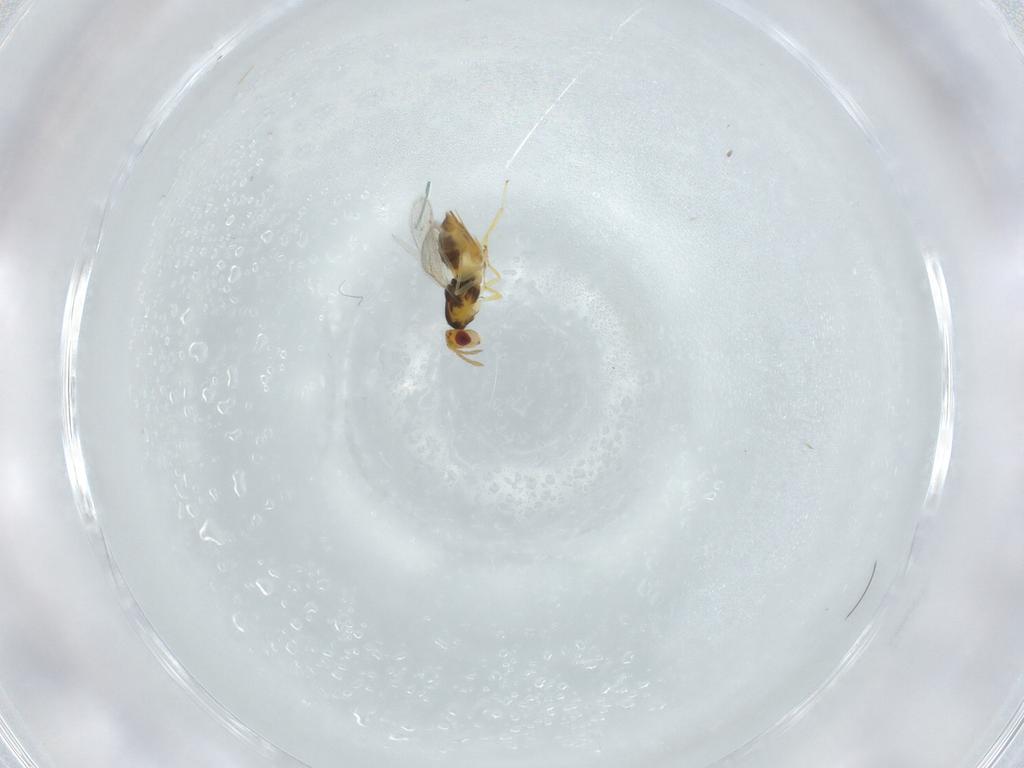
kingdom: Animalia
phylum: Arthropoda
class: Insecta
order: Hymenoptera
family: Eulophidae
